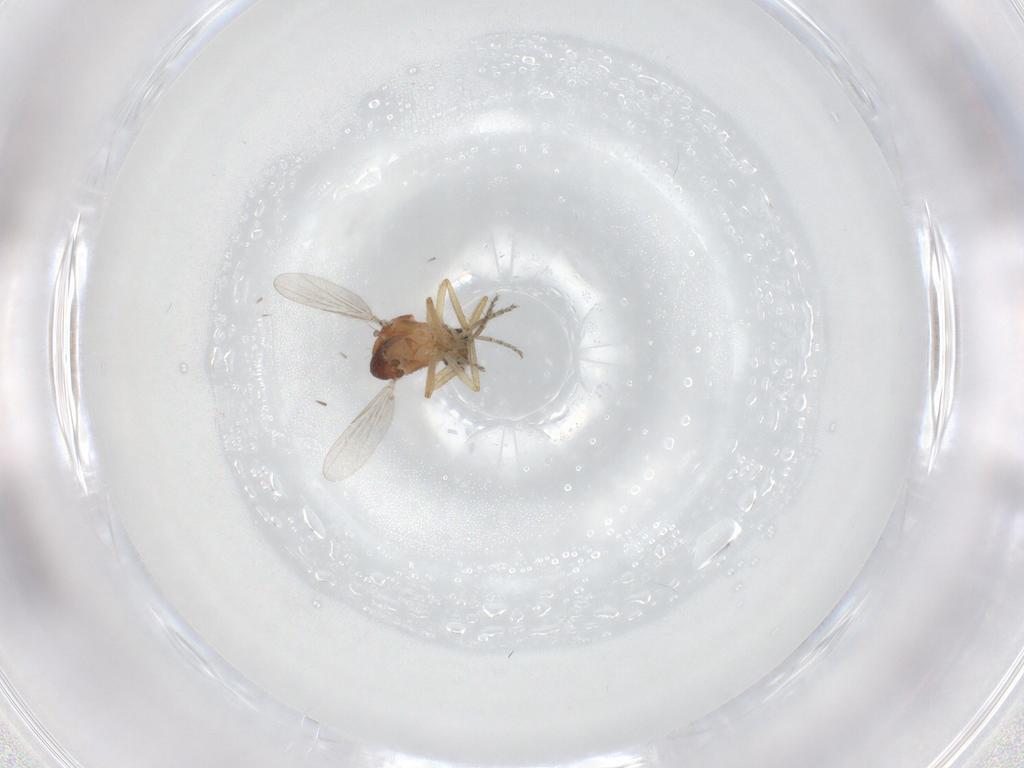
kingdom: Animalia
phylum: Arthropoda
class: Insecta
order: Diptera
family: Ceratopogonidae
